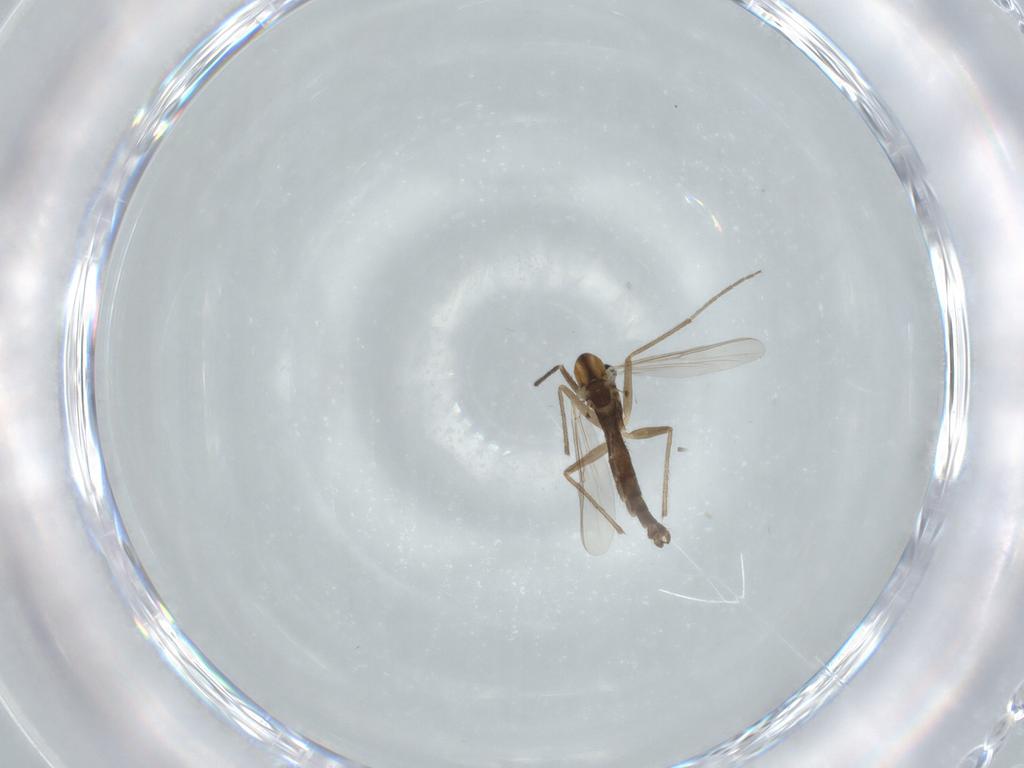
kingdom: Animalia
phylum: Arthropoda
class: Insecta
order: Diptera
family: Chironomidae
